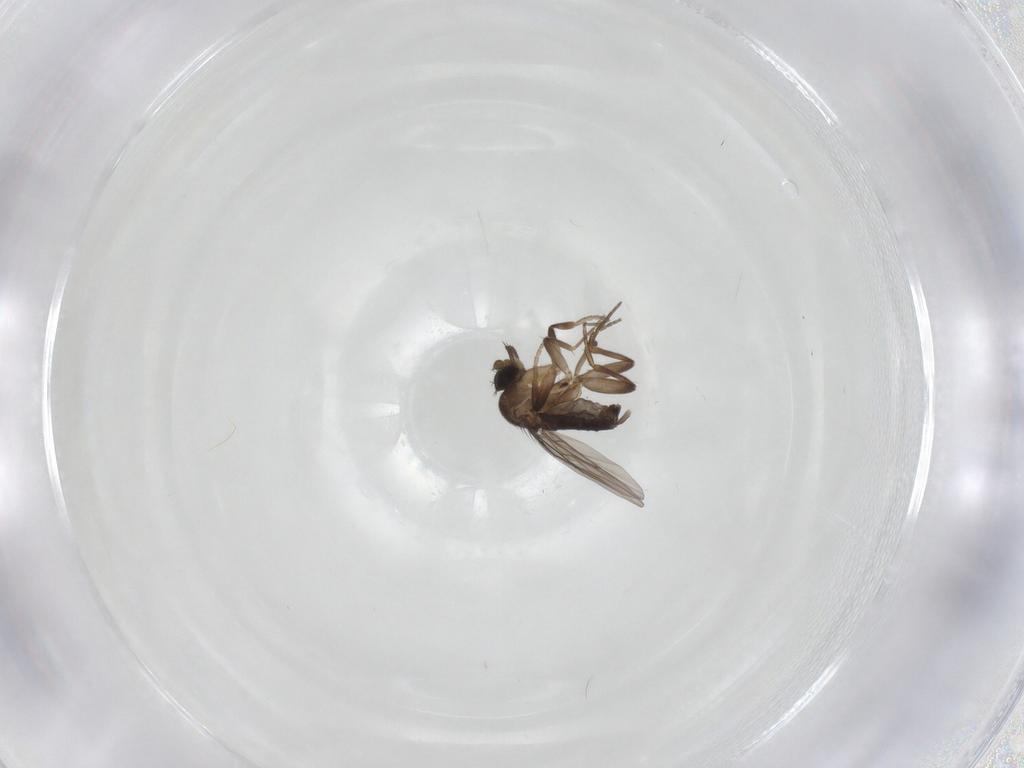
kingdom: Animalia
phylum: Arthropoda
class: Insecta
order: Diptera
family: Phoridae
